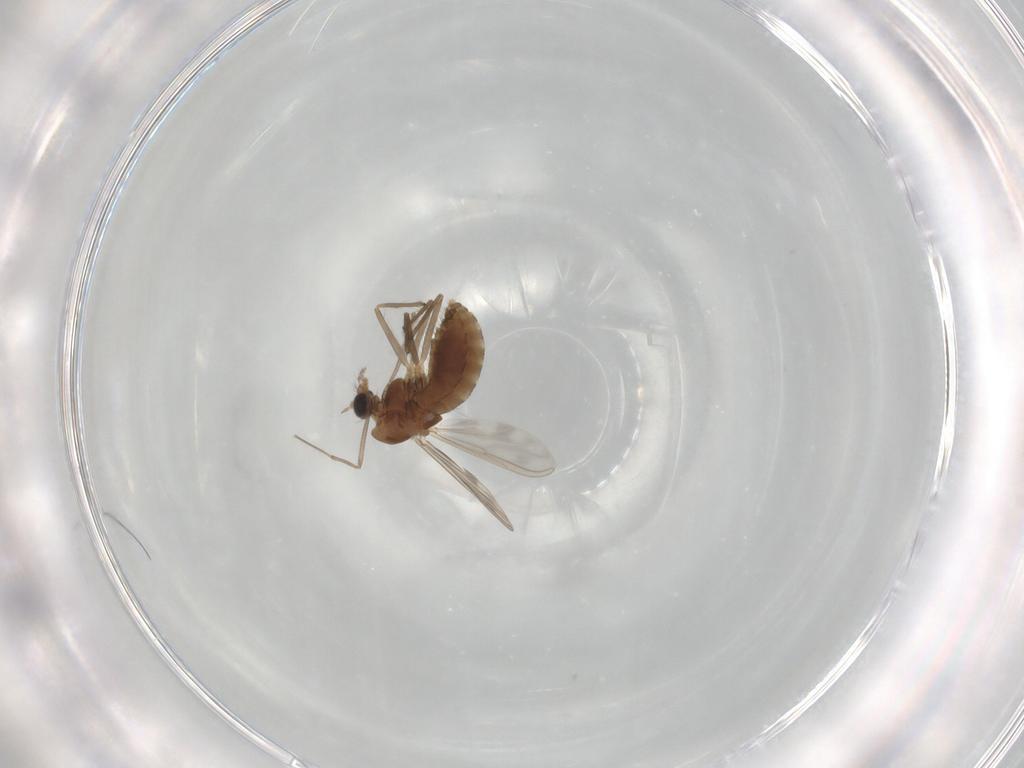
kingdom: Animalia
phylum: Arthropoda
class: Insecta
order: Diptera
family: Chironomidae
